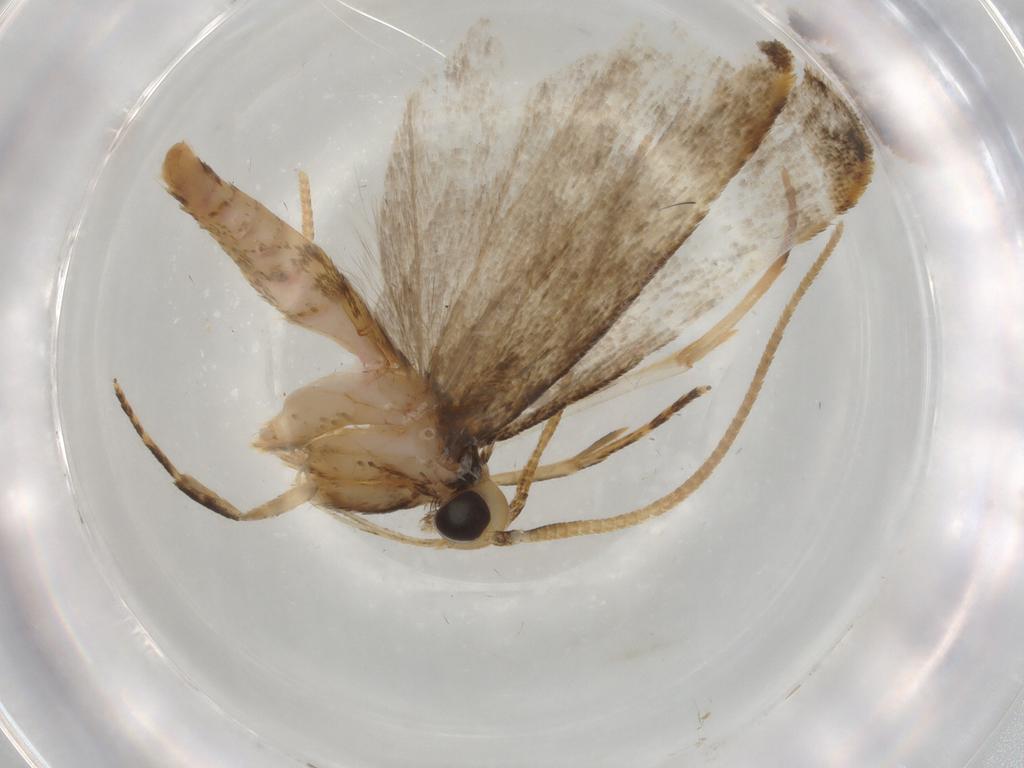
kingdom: Animalia
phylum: Arthropoda
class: Insecta
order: Lepidoptera
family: Autostichidae
